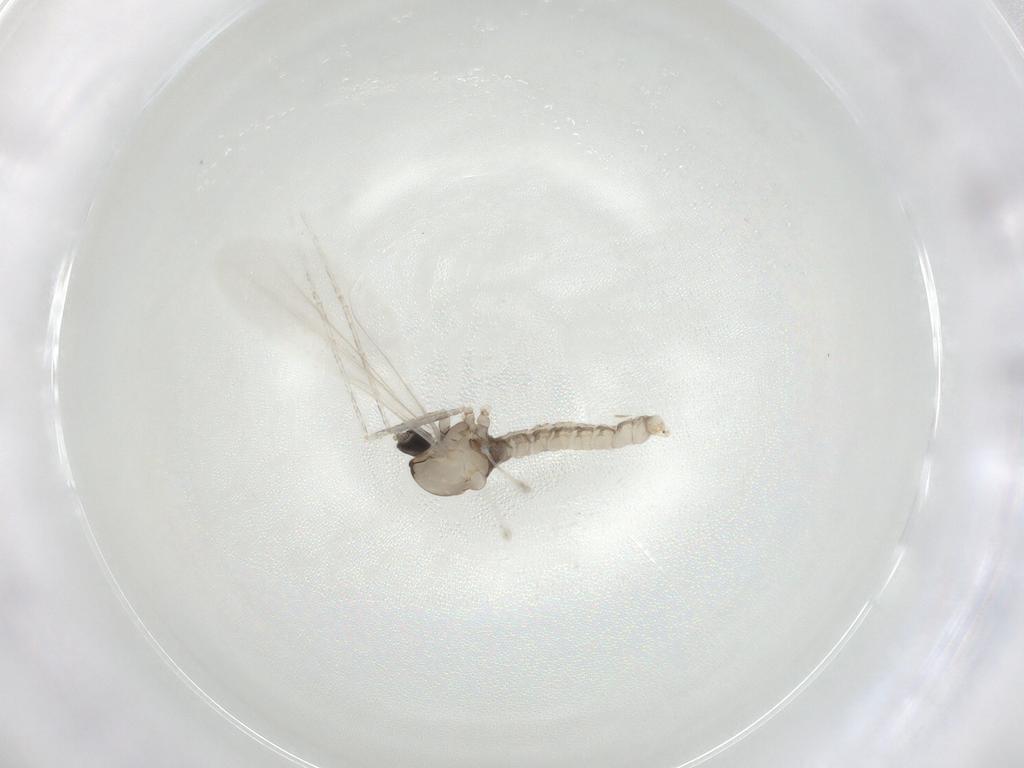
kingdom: Animalia
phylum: Arthropoda
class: Insecta
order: Diptera
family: Cecidomyiidae
